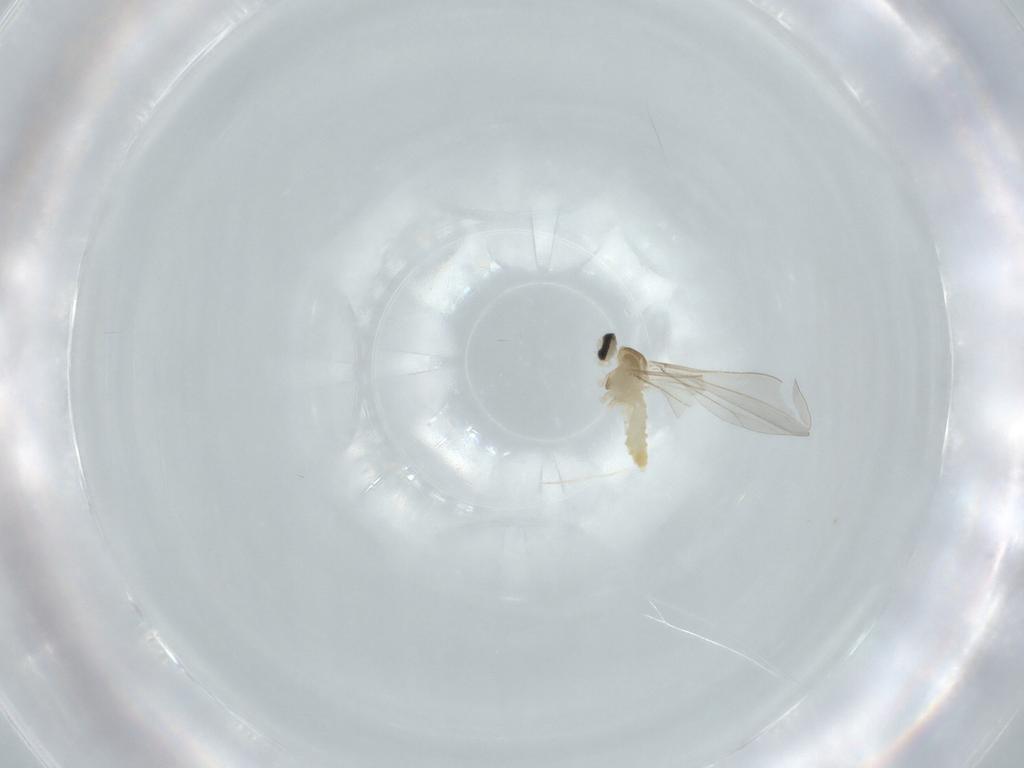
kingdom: Animalia
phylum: Arthropoda
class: Insecta
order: Diptera
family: Cecidomyiidae
